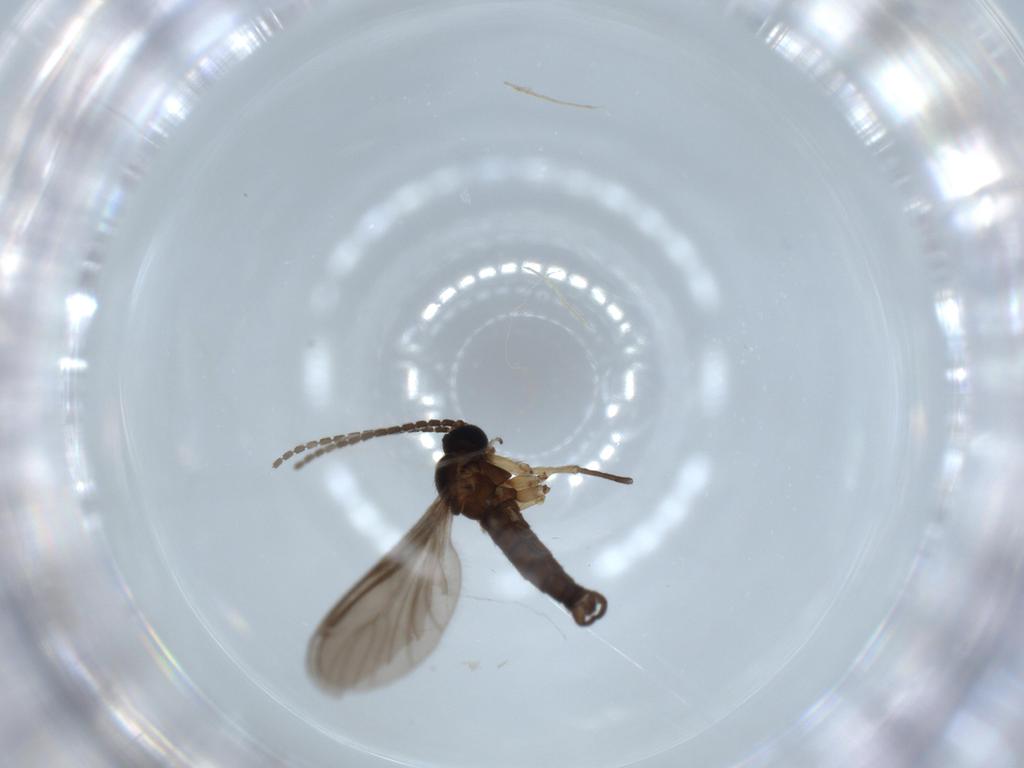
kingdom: Animalia
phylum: Arthropoda
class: Insecta
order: Diptera
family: Sciaridae
